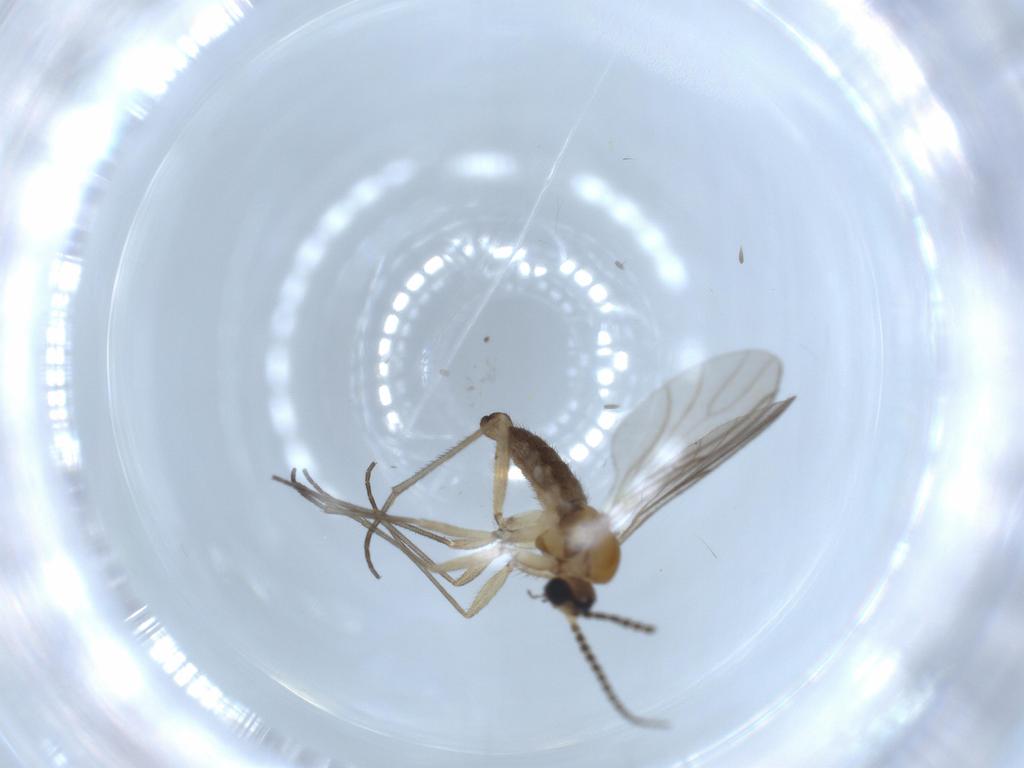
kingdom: Animalia
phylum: Arthropoda
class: Insecta
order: Diptera
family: Sciaridae
